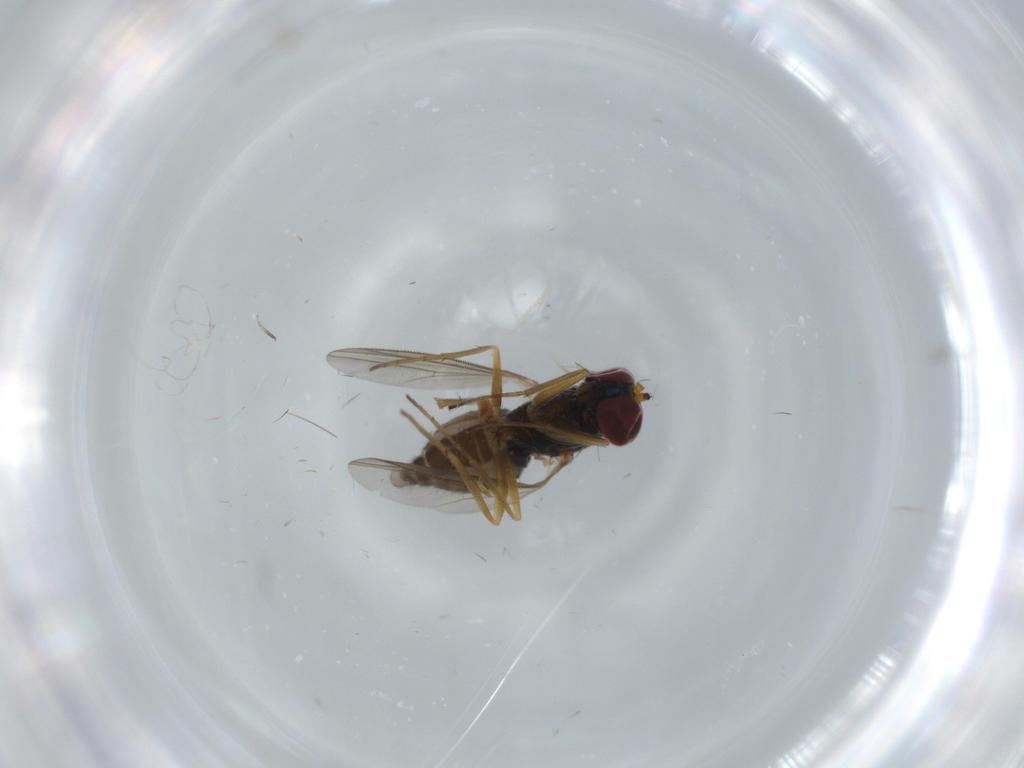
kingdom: Animalia
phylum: Arthropoda
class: Insecta
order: Diptera
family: Dolichopodidae
